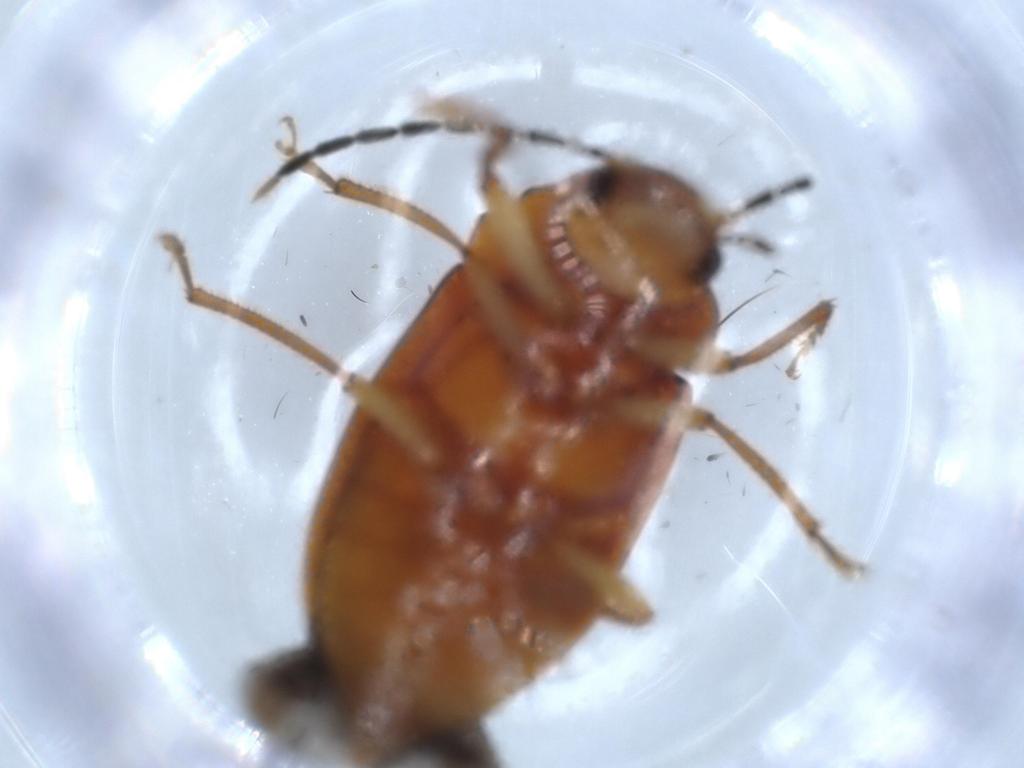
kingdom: Animalia
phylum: Arthropoda
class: Insecta
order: Coleoptera
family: Ptilodactylidae
